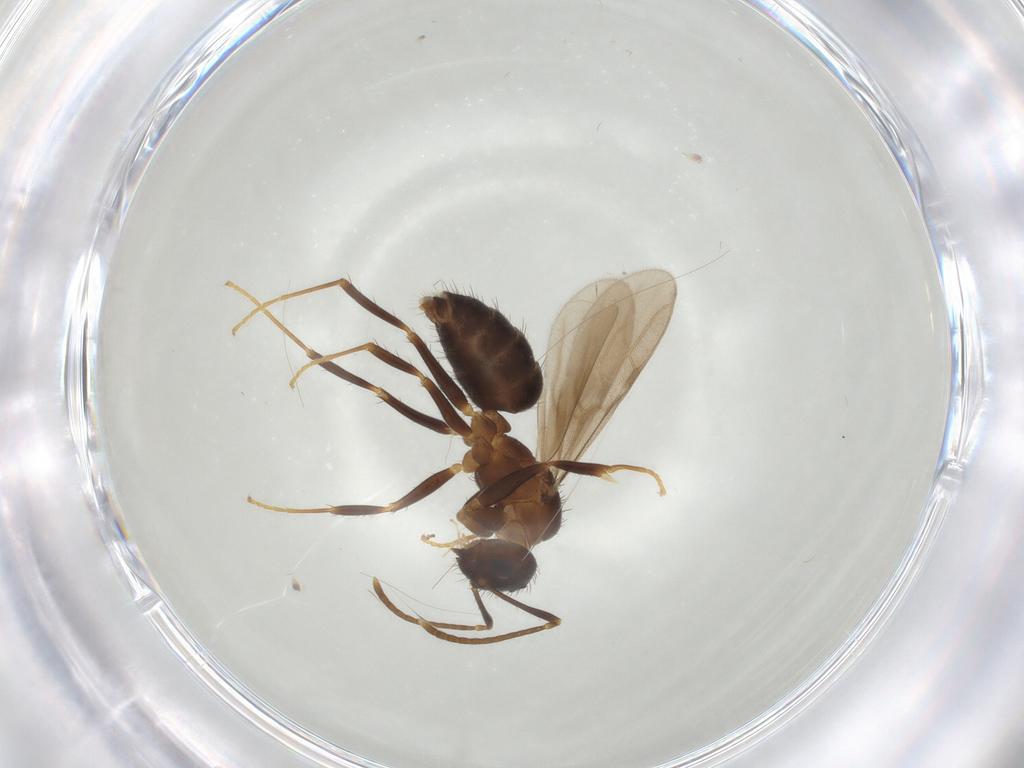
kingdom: Animalia
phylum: Arthropoda
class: Insecta
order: Hymenoptera
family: Formicidae
